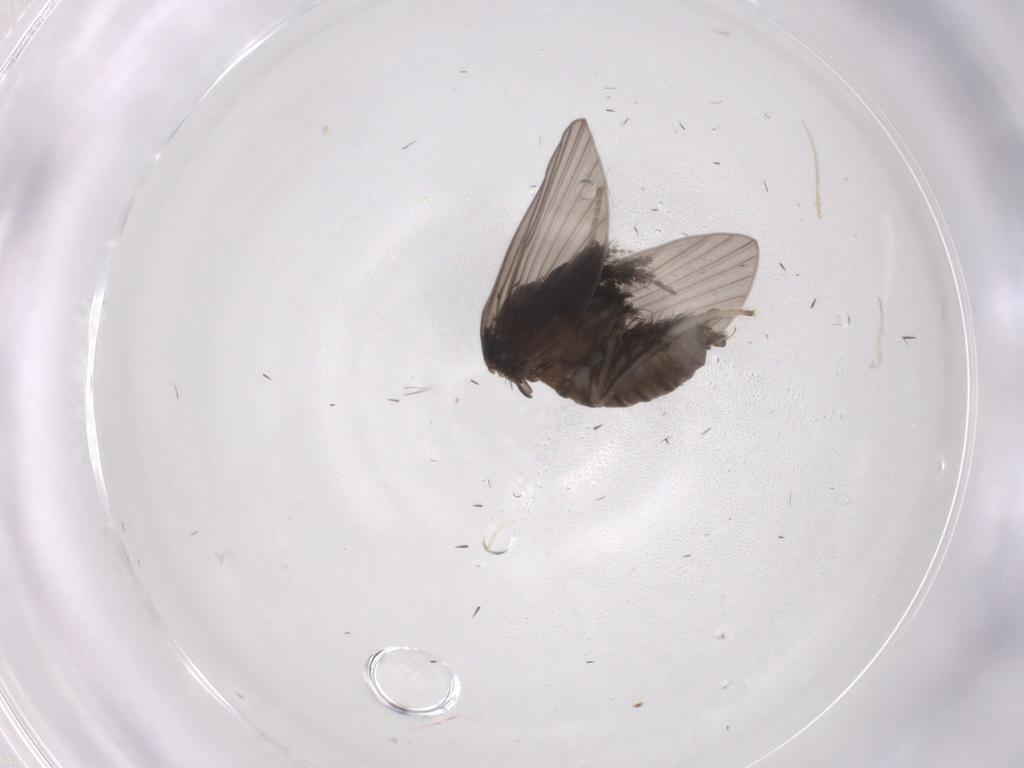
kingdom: Animalia
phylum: Arthropoda
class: Insecta
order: Diptera
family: Psychodidae
